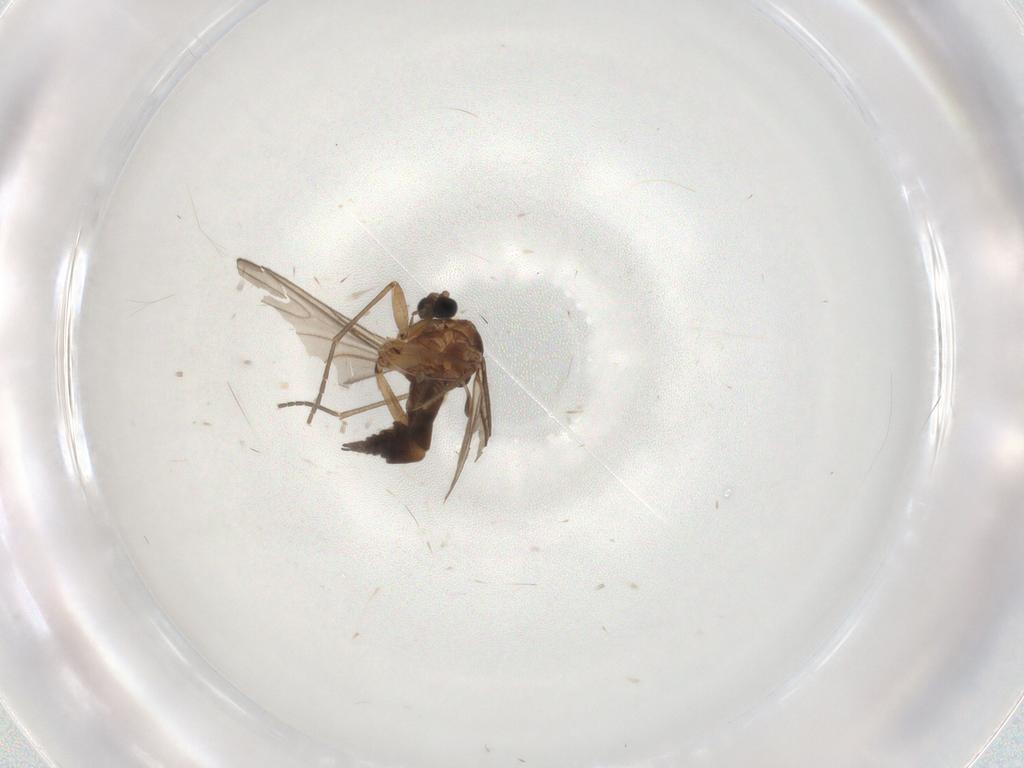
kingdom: Animalia
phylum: Arthropoda
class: Insecta
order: Diptera
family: Sciaridae
